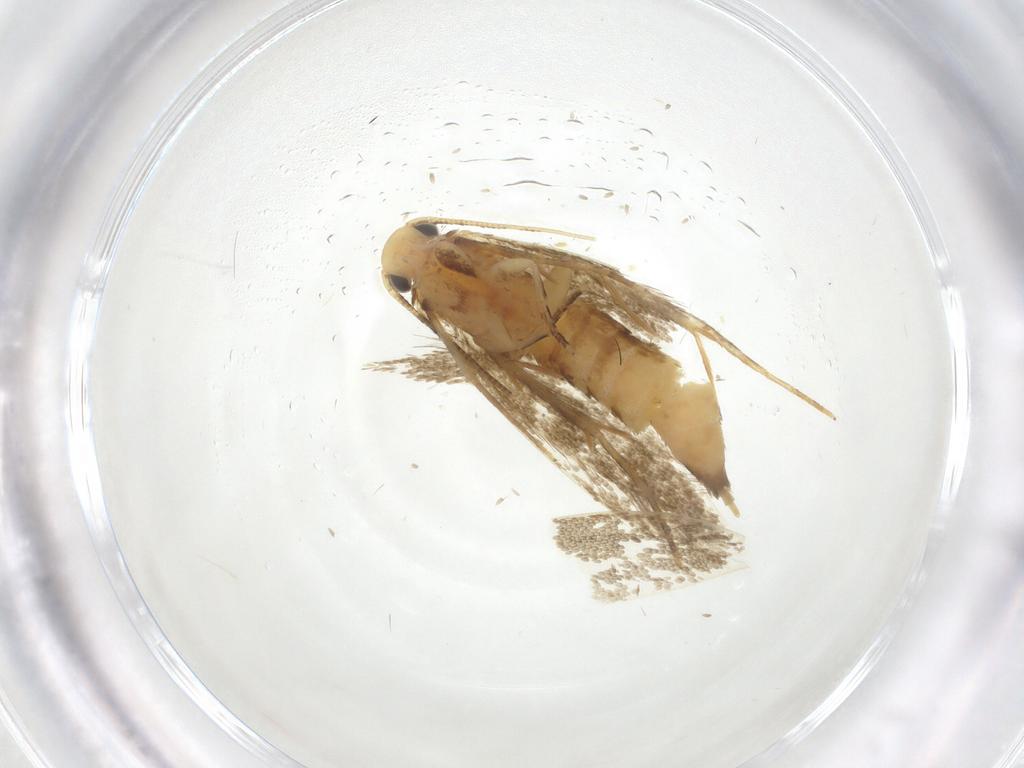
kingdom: Animalia
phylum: Arthropoda
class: Insecta
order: Lepidoptera
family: Tineidae
